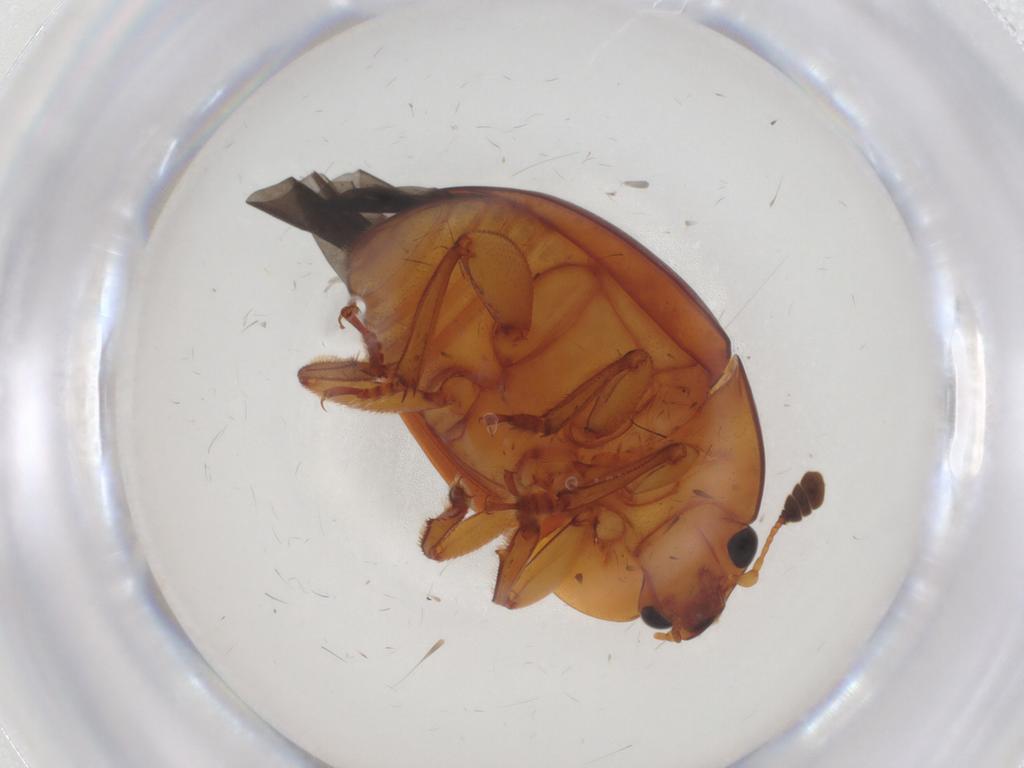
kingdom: Animalia
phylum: Arthropoda
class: Insecta
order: Coleoptera
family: Nitidulidae
